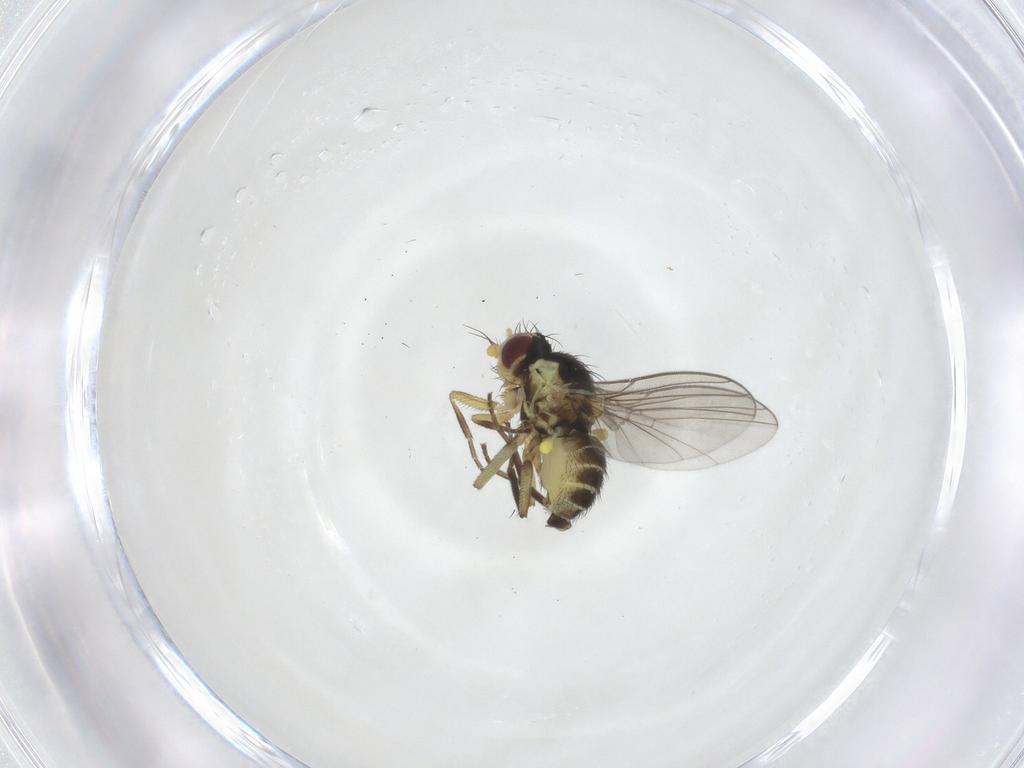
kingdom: Animalia
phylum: Arthropoda
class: Insecta
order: Diptera
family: Agromyzidae
